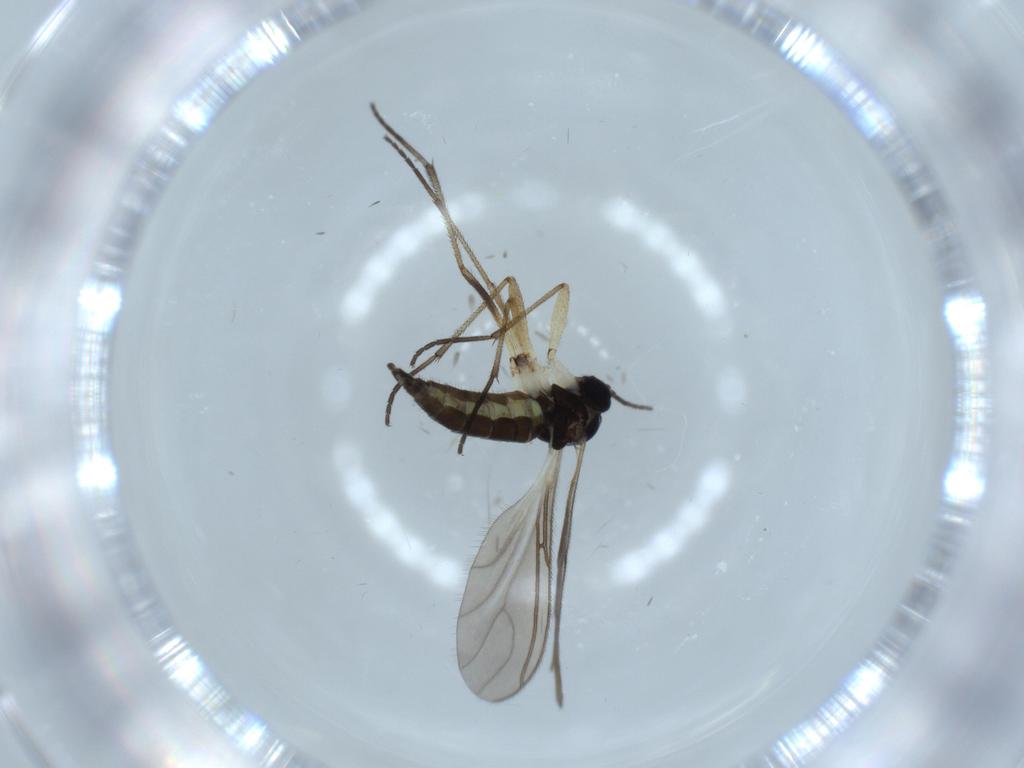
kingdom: Animalia
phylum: Arthropoda
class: Insecta
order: Diptera
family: Sciaridae
